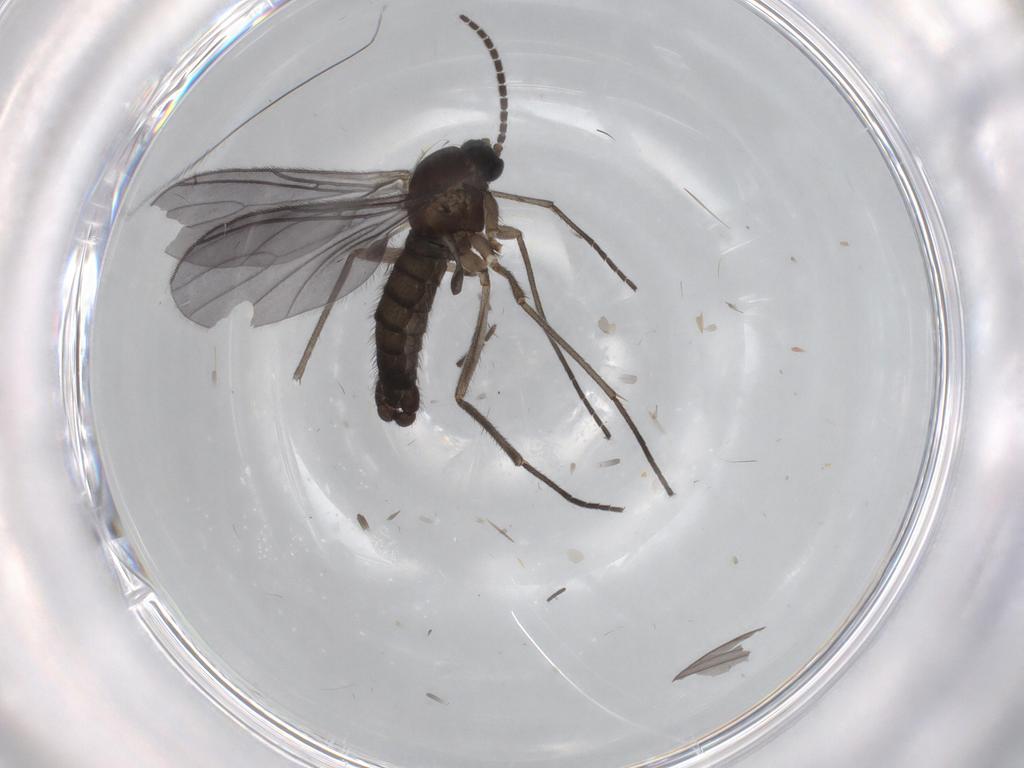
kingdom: Animalia
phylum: Arthropoda
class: Insecta
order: Diptera
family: Sciaridae
